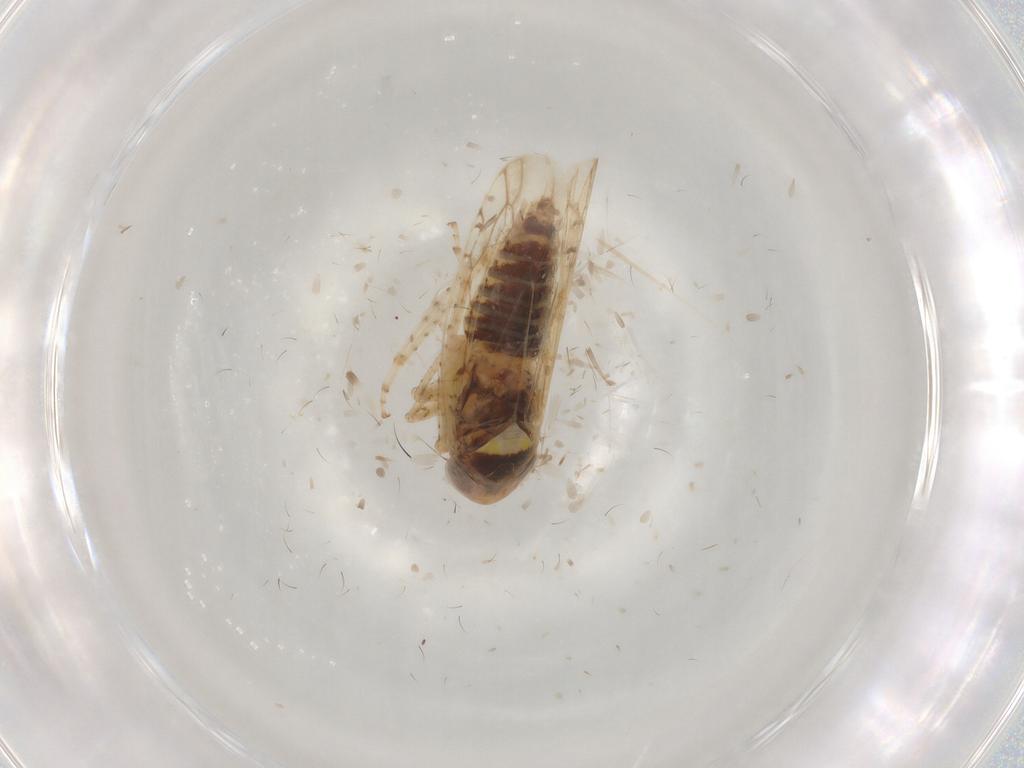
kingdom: Animalia
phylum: Arthropoda
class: Insecta
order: Hemiptera
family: Cicadellidae
